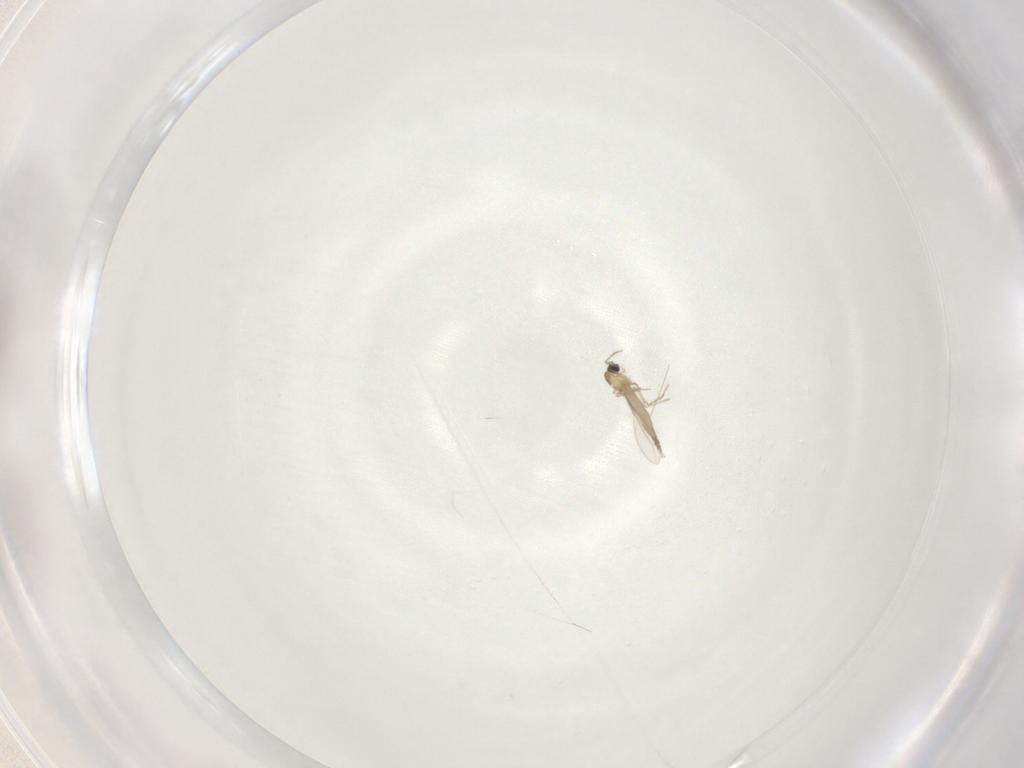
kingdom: Animalia
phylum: Arthropoda
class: Insecta
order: Diptera
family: Cecidomyiidae
